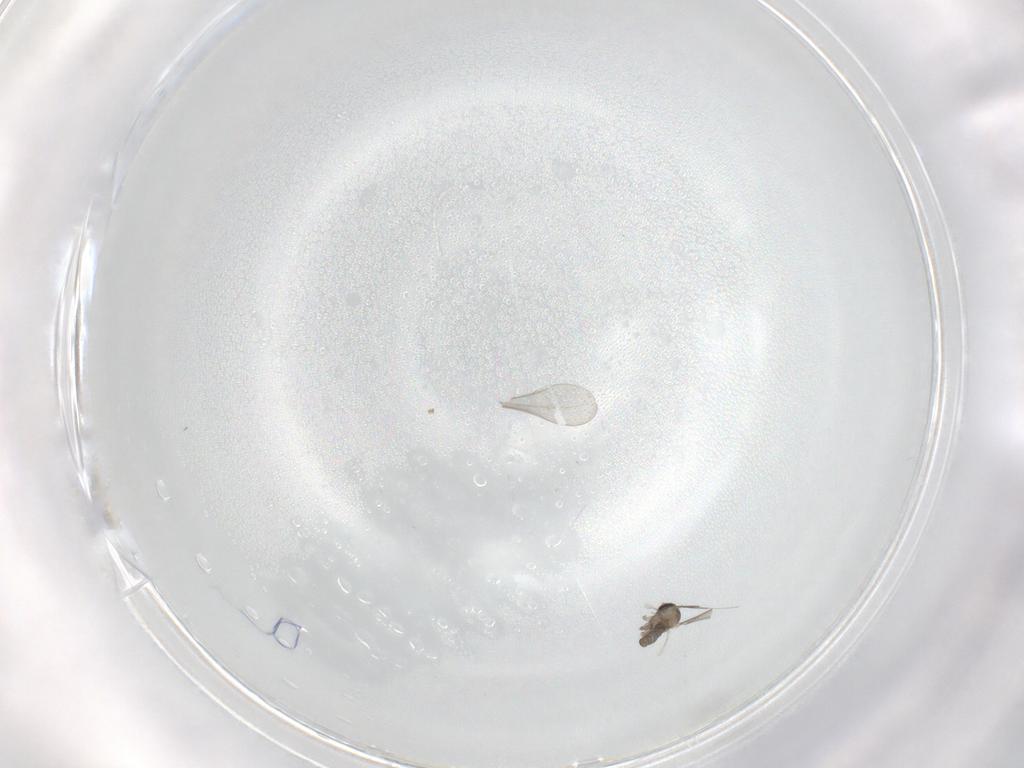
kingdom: Animalia
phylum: Arthropoda
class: Insecta
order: Diptera
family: Cecidomyiidae
